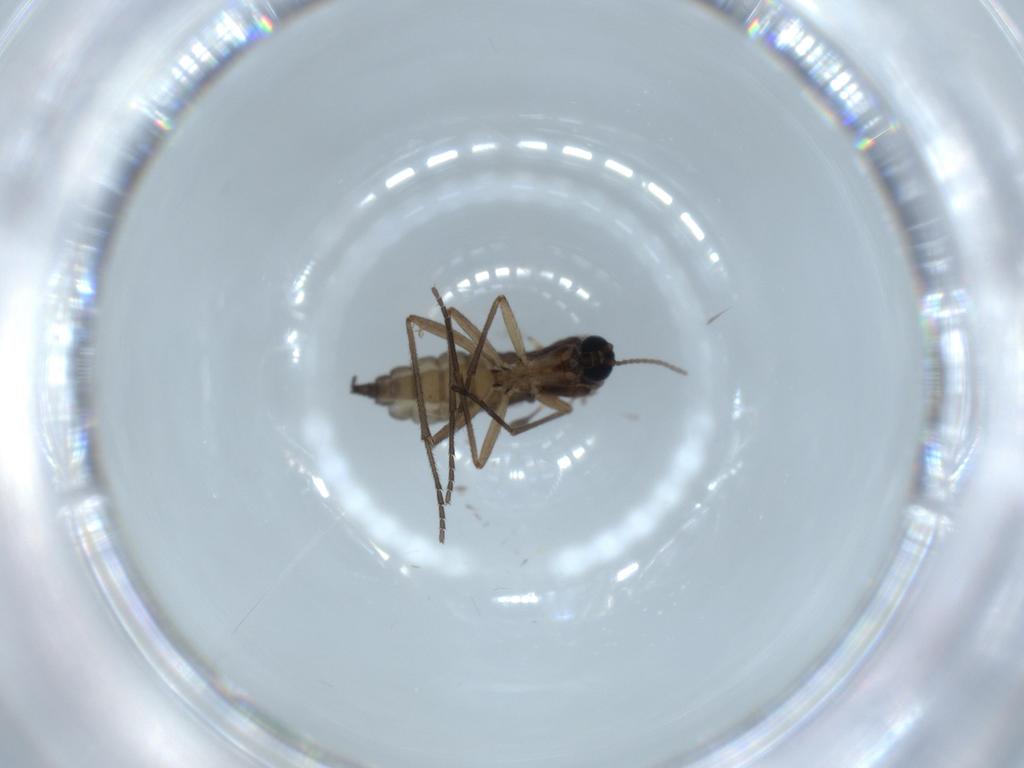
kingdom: Animalia
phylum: Arthropoda
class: Insecta
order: Diptera
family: Sciaridae
